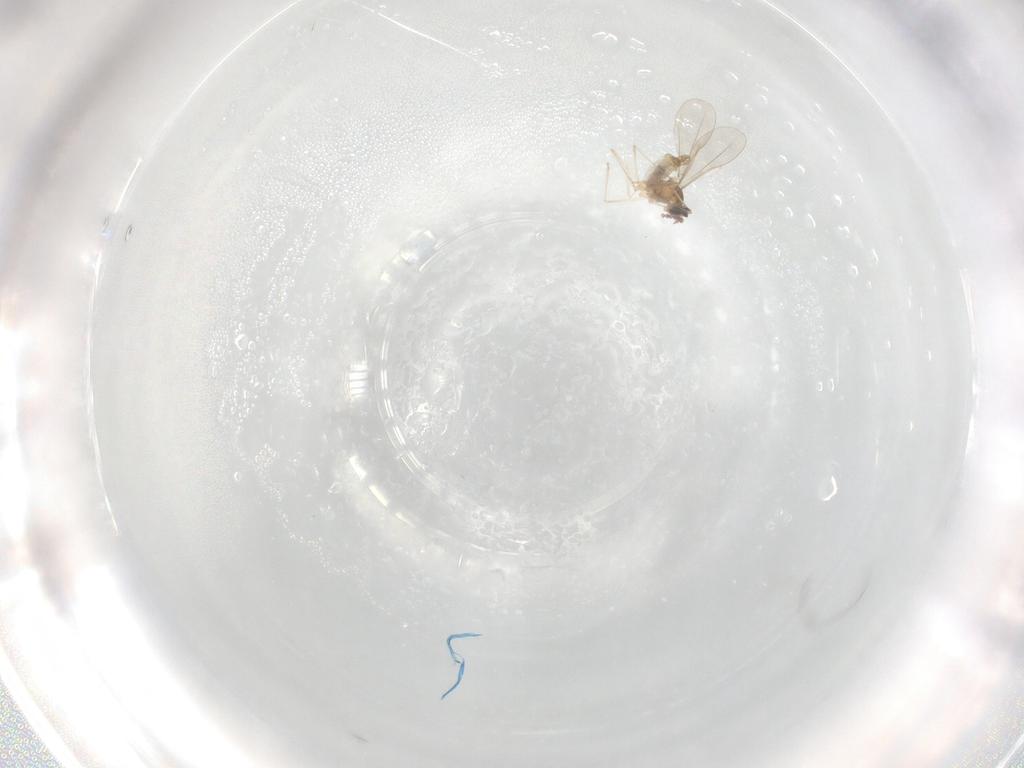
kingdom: Animalia
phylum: Arthropoda
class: Insecta
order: Diptera
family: Cecidomyiidae
